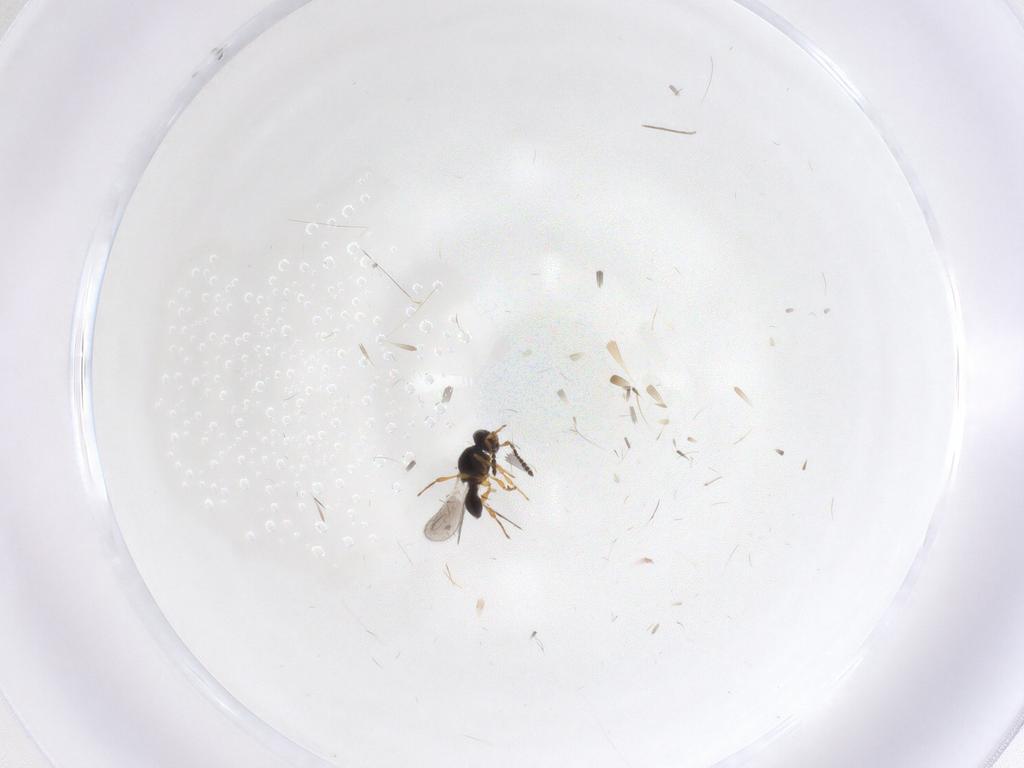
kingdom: Animalia
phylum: Arthropoda
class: Insecta
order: Hymenoptera
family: Platygastridae
